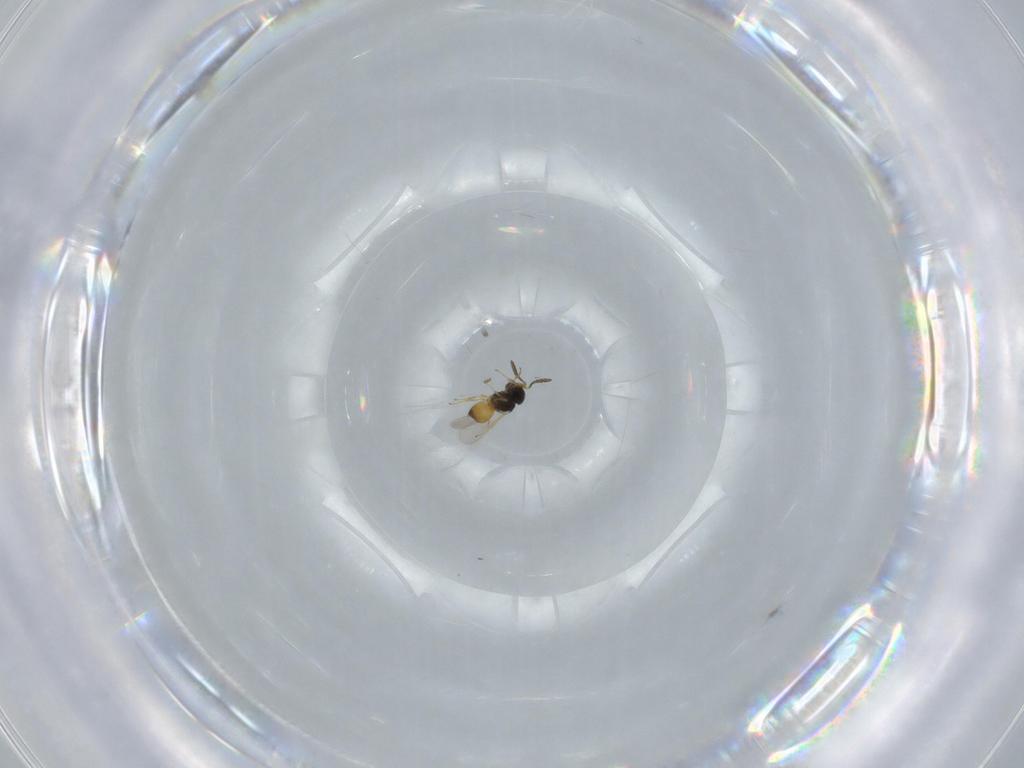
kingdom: Animalia
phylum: Arthropoda
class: Insecta
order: Hymenoptera
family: Scelionidae
